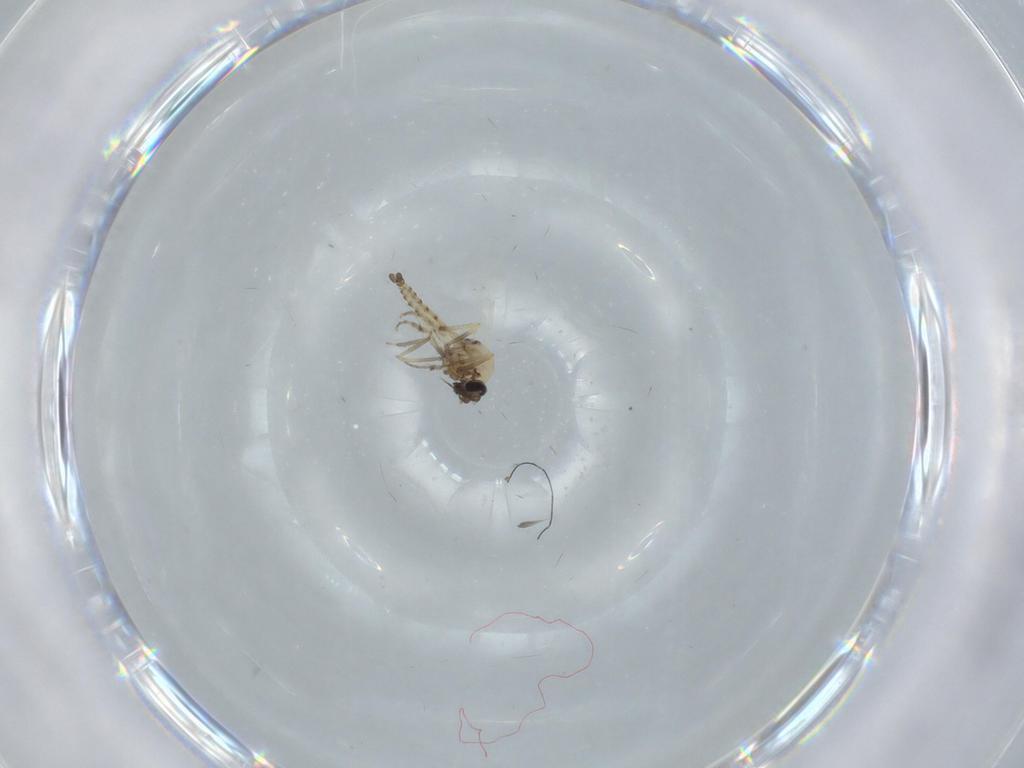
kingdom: Animalia
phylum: Arthropoda
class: Insecta
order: Diptera
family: Ceratopogonidae
